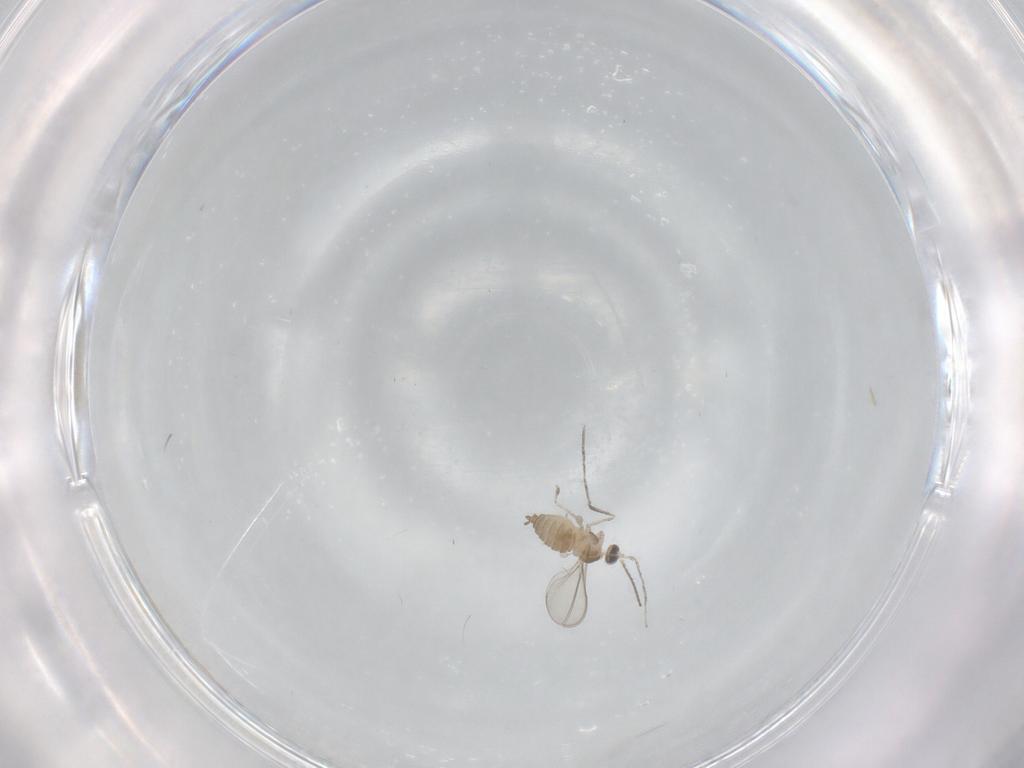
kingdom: Animalia
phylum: Arthropoda
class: Insecta
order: Diptera
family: Cecidomyiidae
